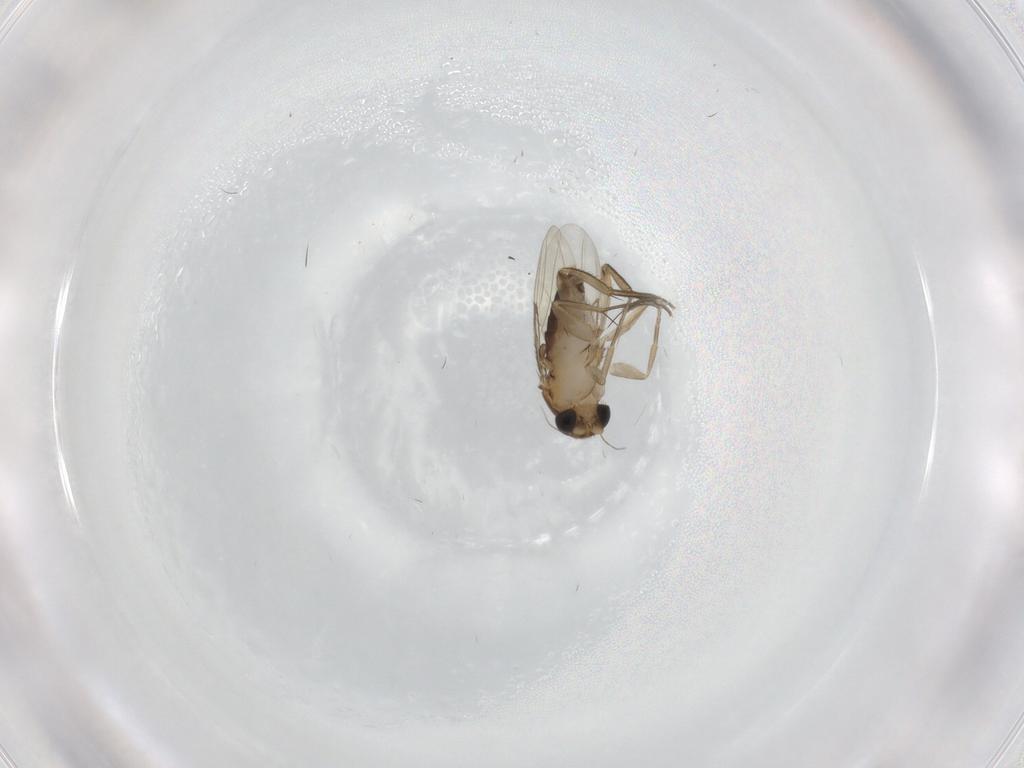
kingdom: Animalia
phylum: Arthropoda
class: Insecta
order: Diptera
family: Phoridae
